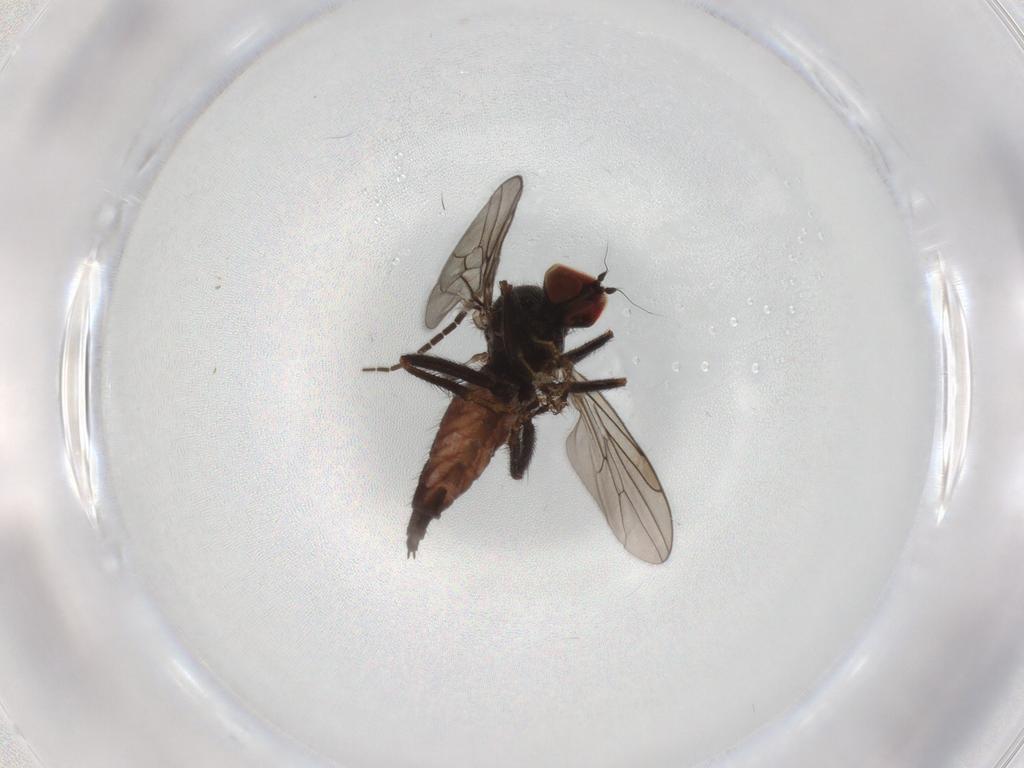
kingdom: Animalia
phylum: Arthropoda
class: Insecta
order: Diptera
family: Hybotidae
